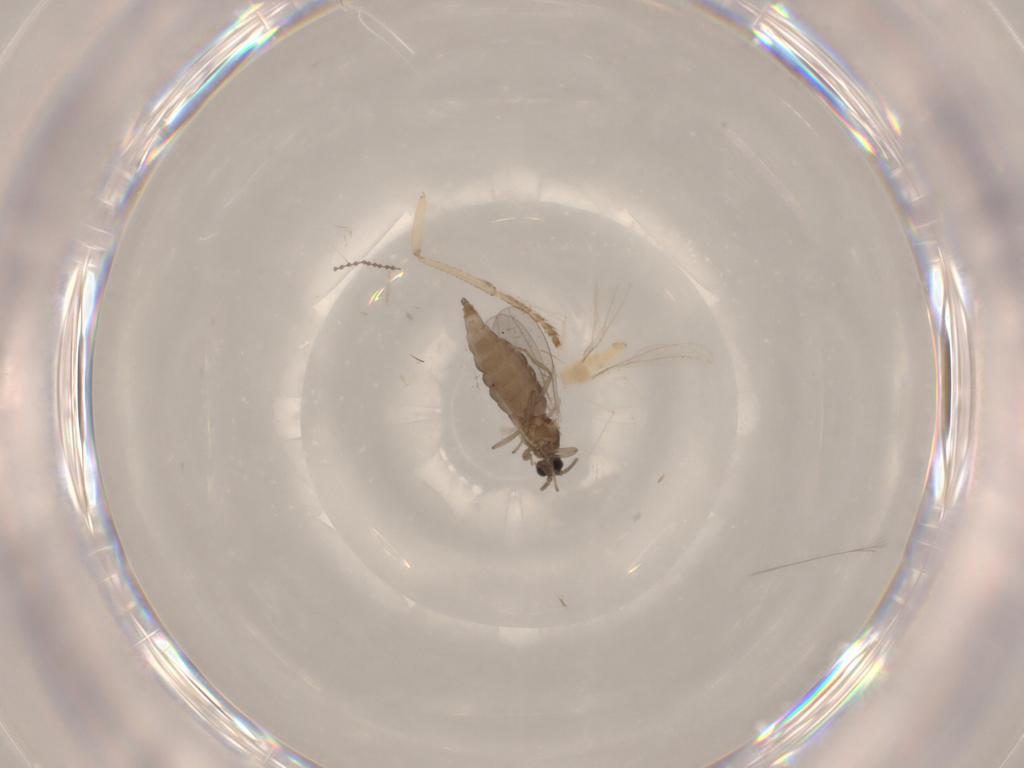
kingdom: Animalia
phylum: Arthropoda
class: Insecta
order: Diptera
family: Cecidomyiidae
